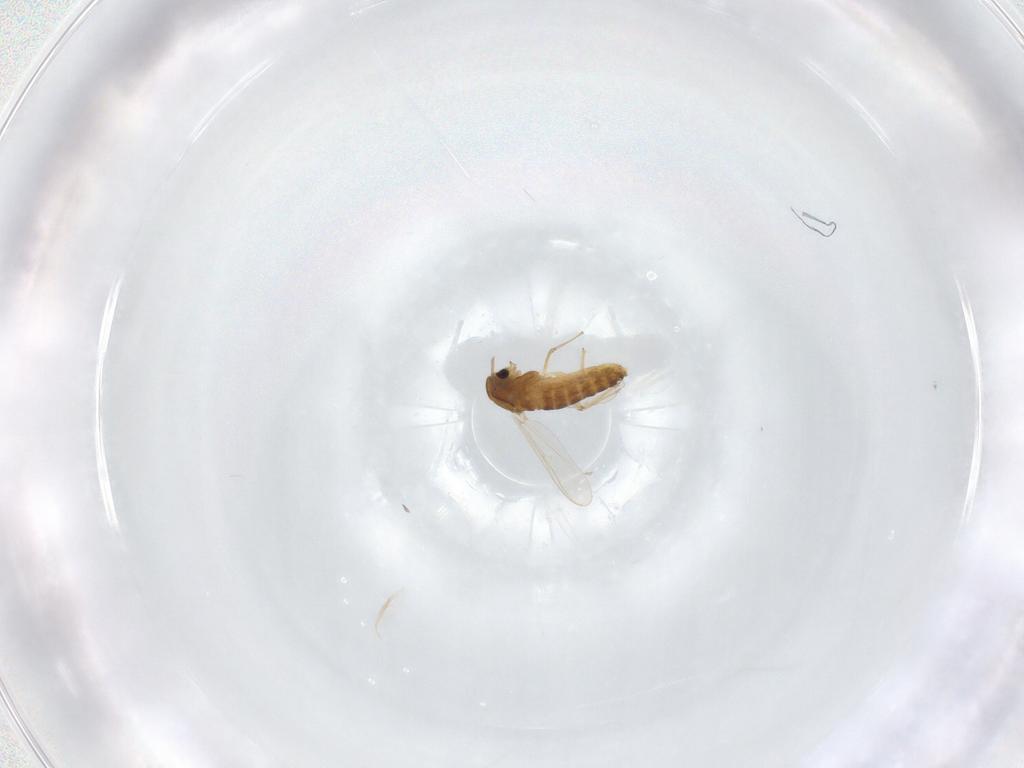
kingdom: Animalia
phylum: Arthropoda
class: Insecta
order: Diptera
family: Chironomidae
